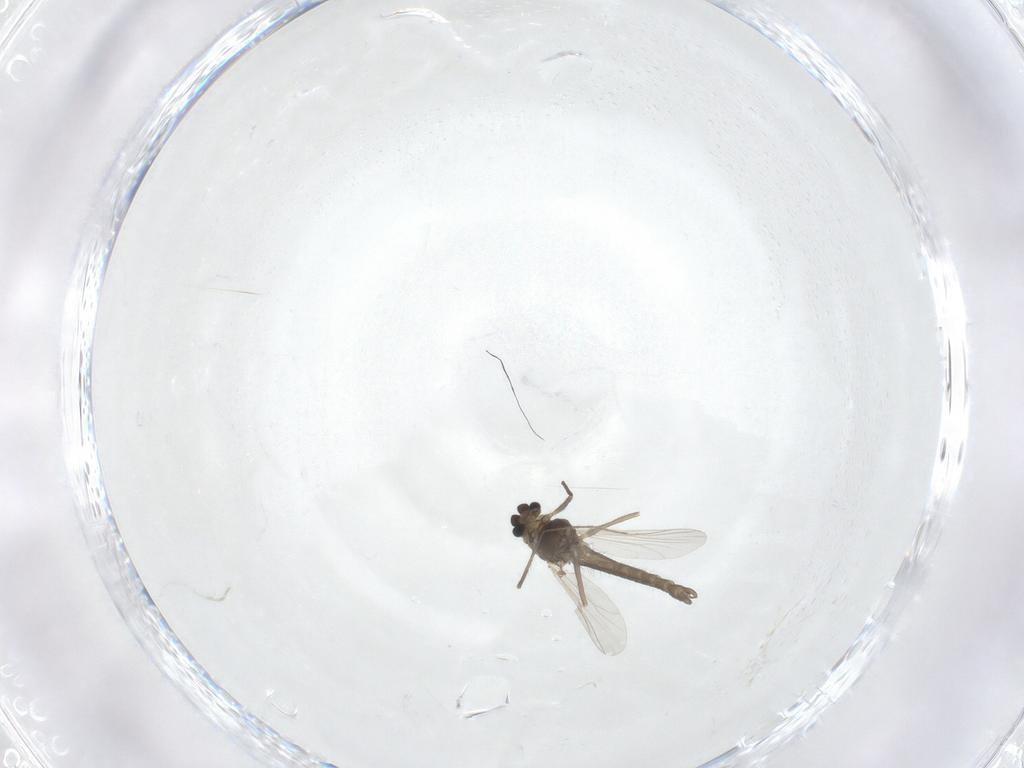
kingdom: Animalia
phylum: Arthropoda
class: Insecta
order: Diptera
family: Chironomidae
